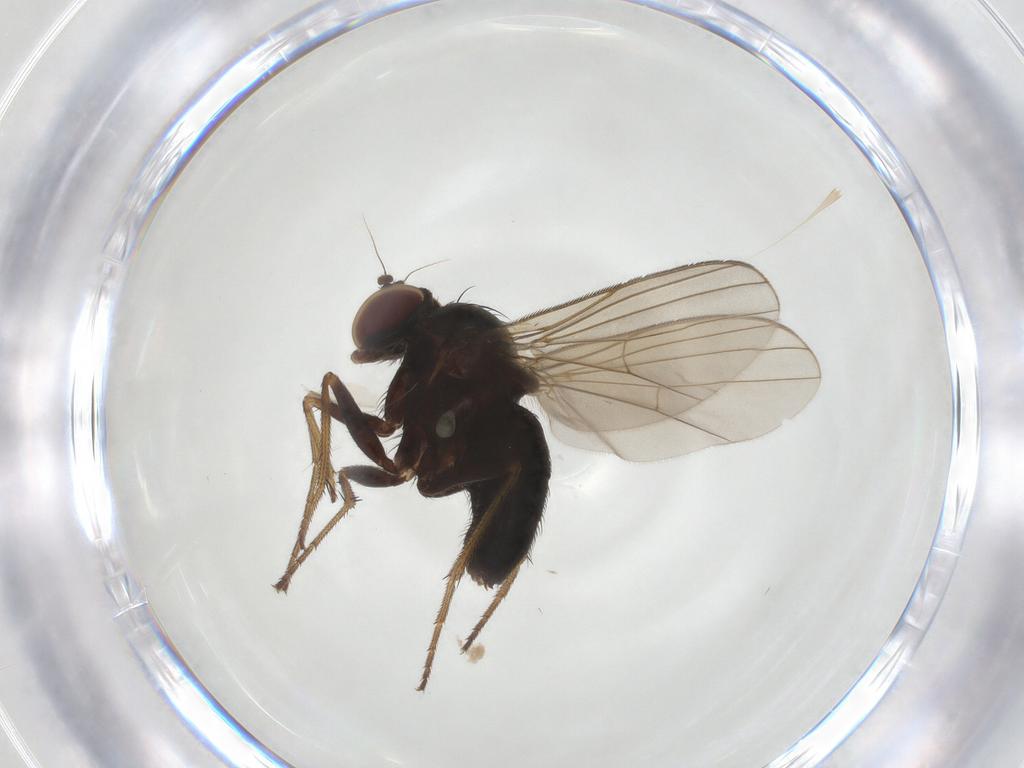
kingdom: Animalia
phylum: Arthropoda
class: Insecta
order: Diptera
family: Dolichopodidae
